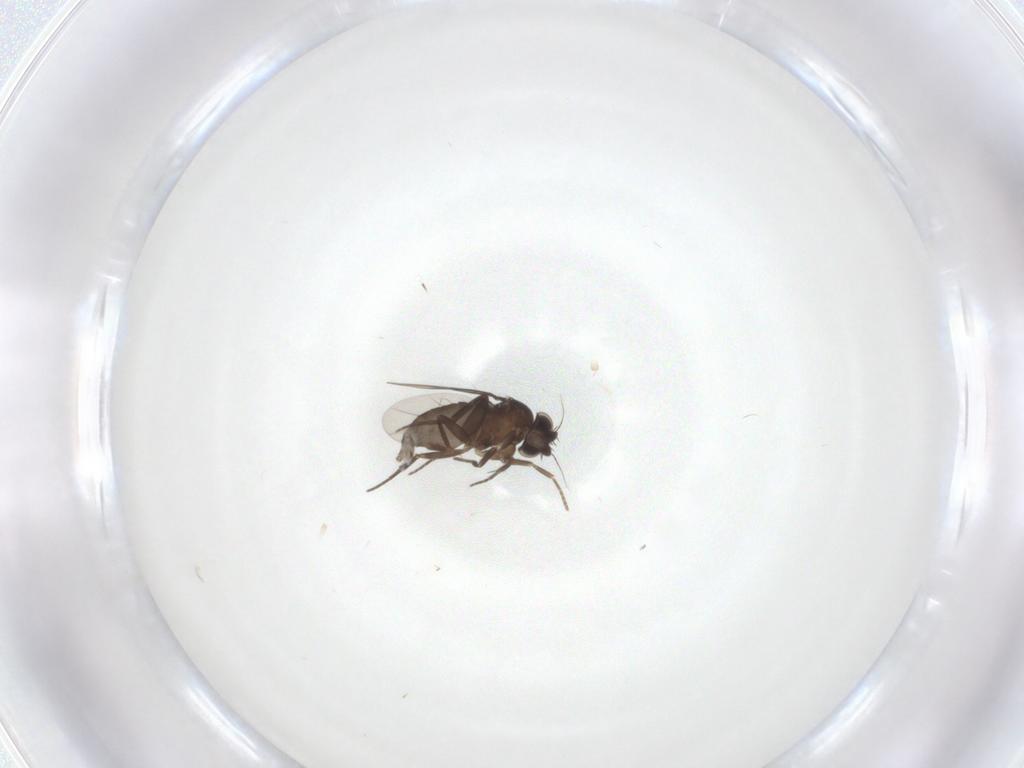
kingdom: Animalia
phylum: Arthropoda
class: Insecta
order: Diptera
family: Phoridae
